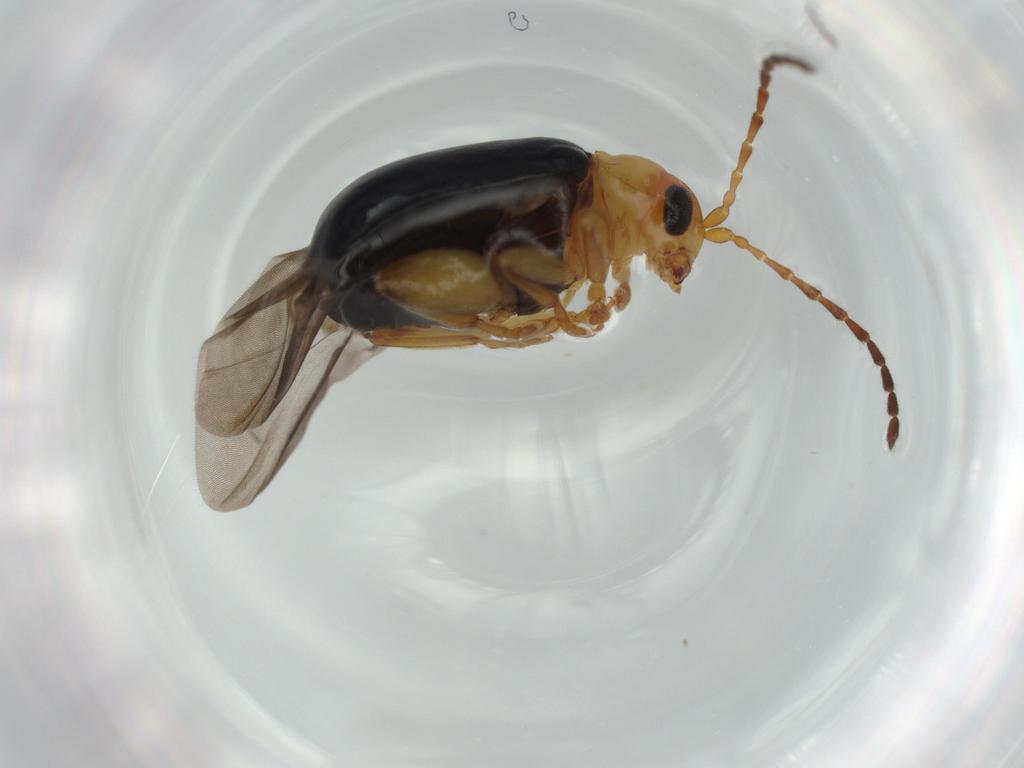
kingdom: Animalia
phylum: Arthropoda
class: Insecta
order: Coleoptera
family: Chrysomelidae
